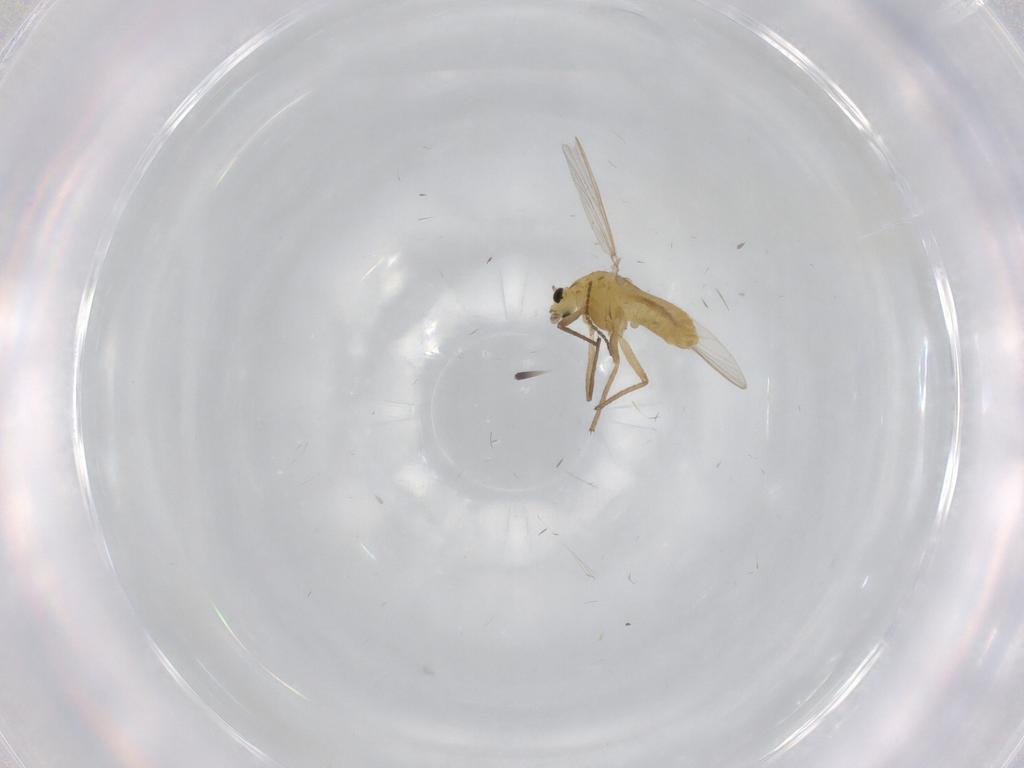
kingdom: Animalia
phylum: Arthropoda
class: Insecta
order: Diptera
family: Chironomidae
